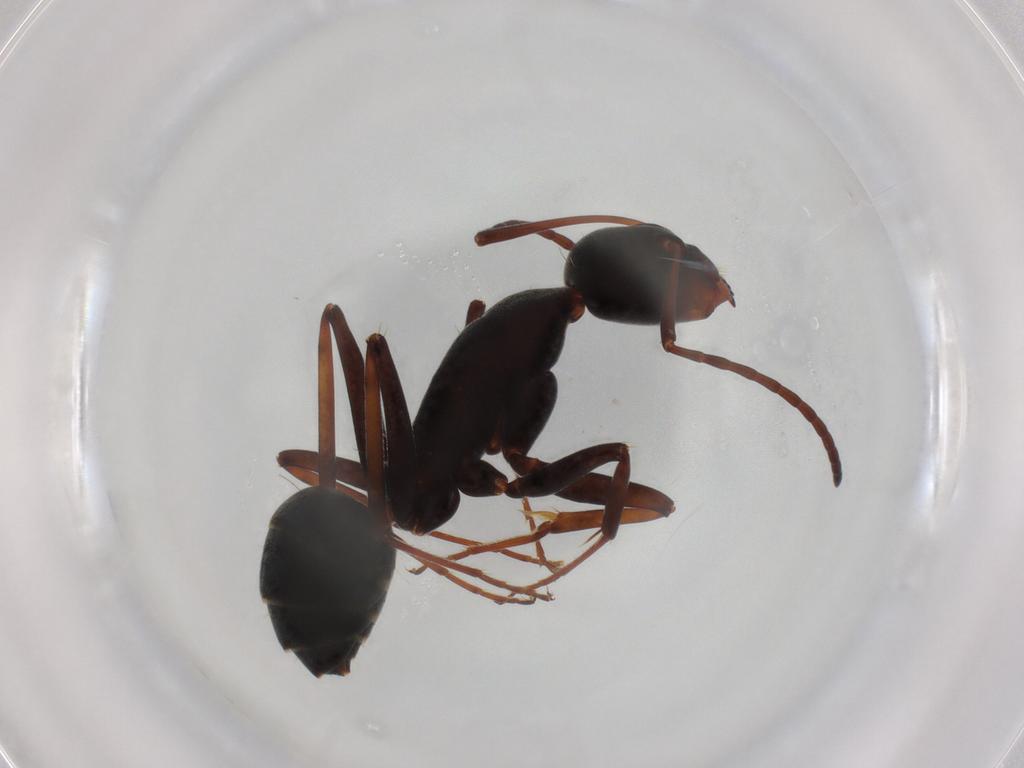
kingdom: Animalia
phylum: Arthropoda
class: Insecta
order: Hymenoptera
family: Formicidae
